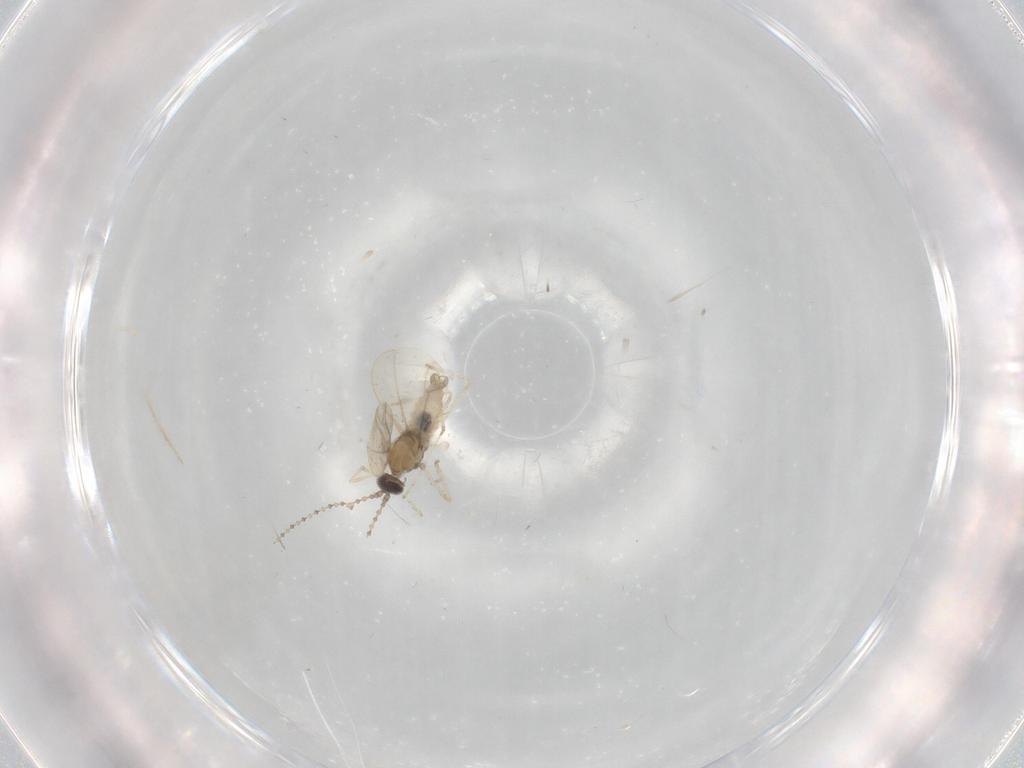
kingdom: Animalia
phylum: Arthropoda
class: Insecta
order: Diptera
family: Cecidomyiidae
